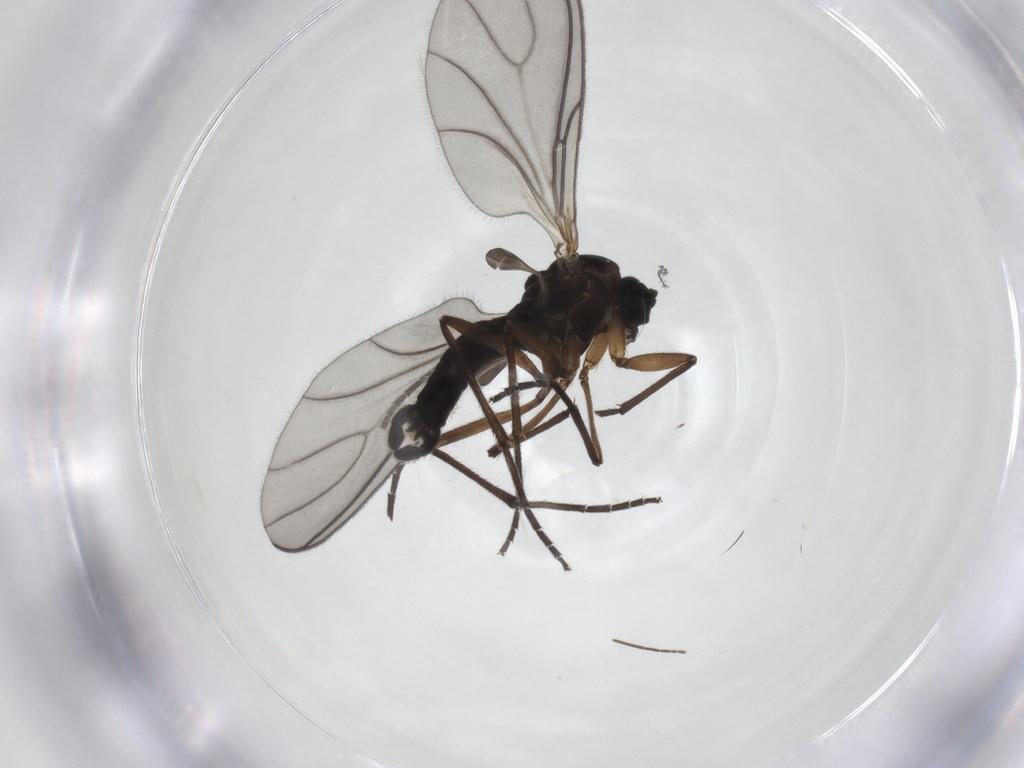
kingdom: Animalia
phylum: Arthropoda
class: Insecta
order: Diptera
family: Sciaridae
